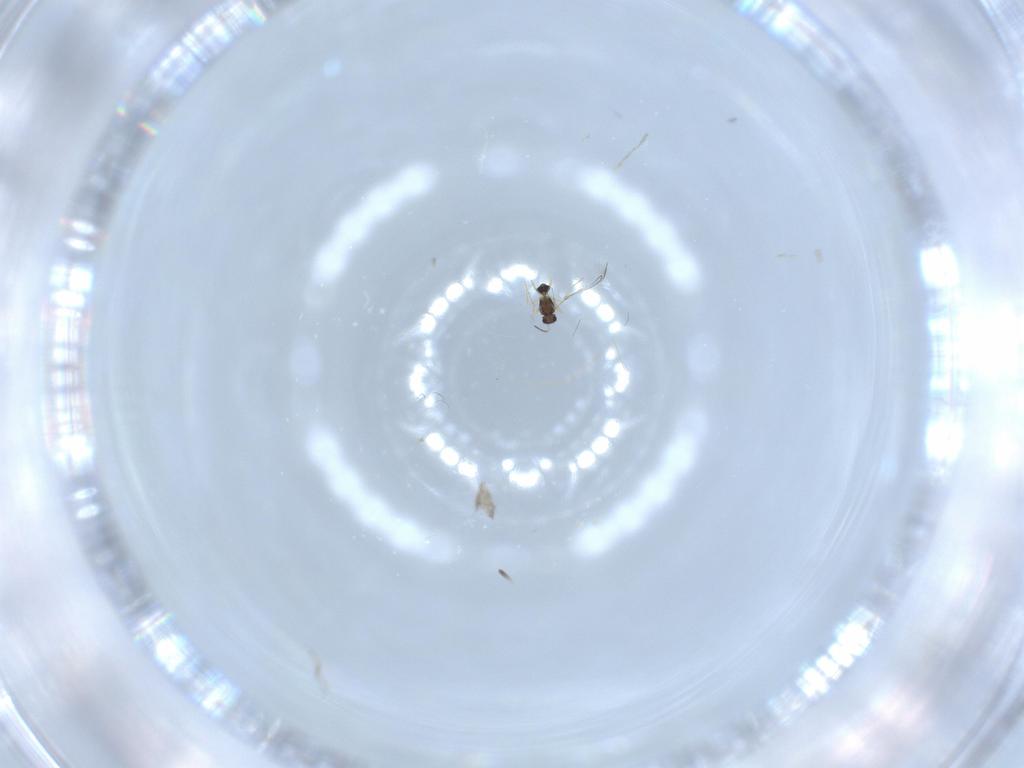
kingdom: Animalia
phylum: Arthropoda
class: Insecta
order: Hymenoptera
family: Mymaridae
